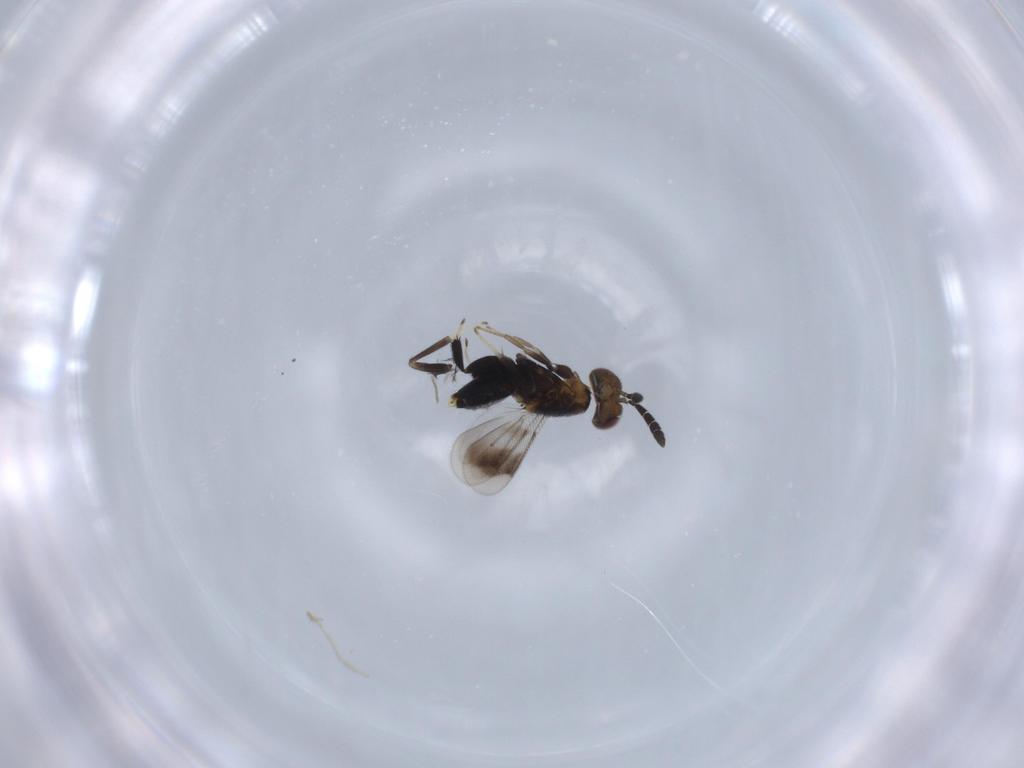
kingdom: Animalia
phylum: Arthropoda
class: Insecta
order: Hymenoptera
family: Aphelinidae
